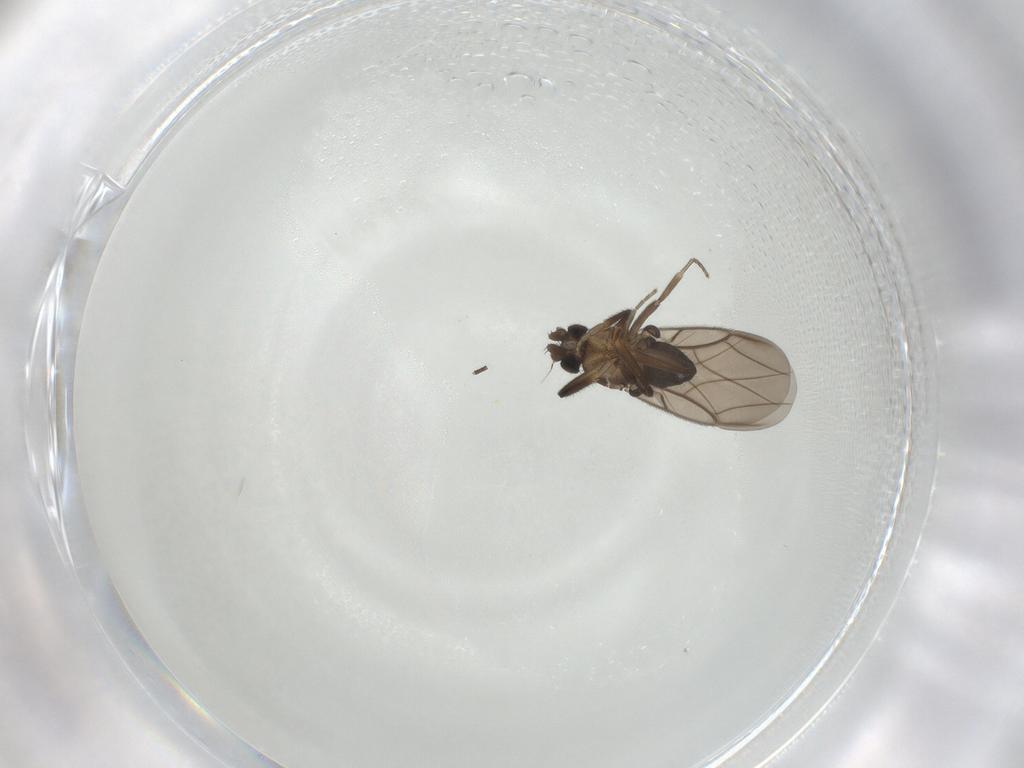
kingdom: Animalia
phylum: Arthropoda
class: Insecta
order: Diptera
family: Phoridae
